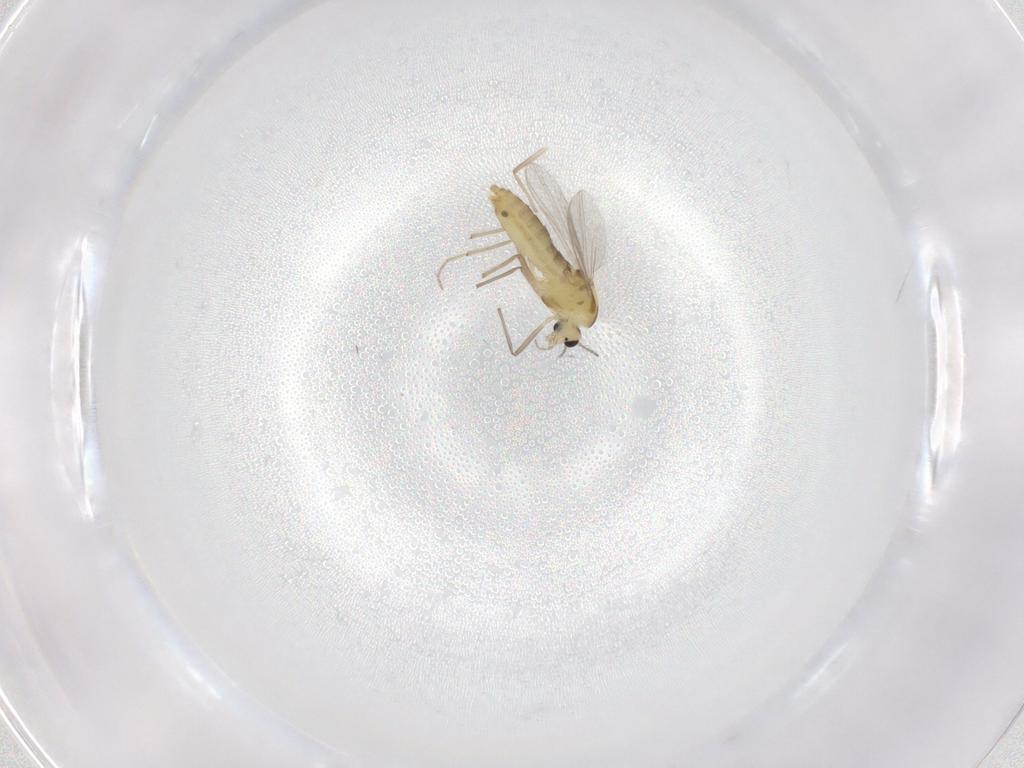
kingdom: Animalia
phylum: Arthropoda
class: Insecta
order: Diptera
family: Chironomidae
